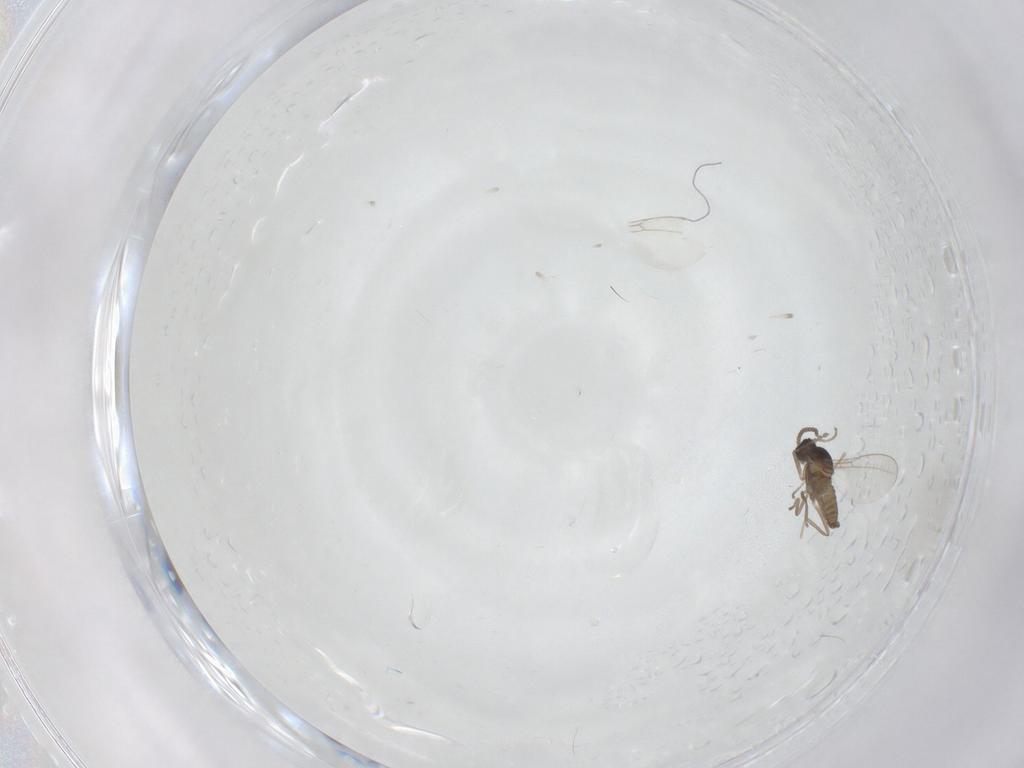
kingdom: Animalia
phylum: Arthropoda
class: Insecta
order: Diptera
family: Cecidomyiidae
